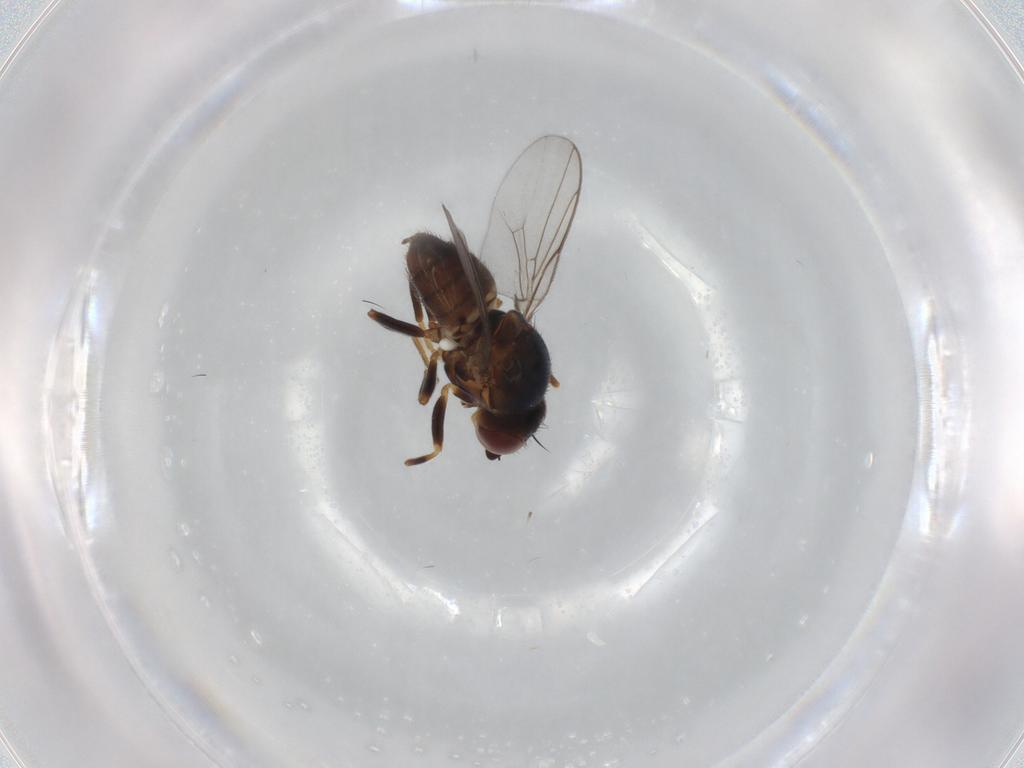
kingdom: Animalia
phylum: Arthropoda
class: Insecta
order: Diptera
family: Chloropidae
